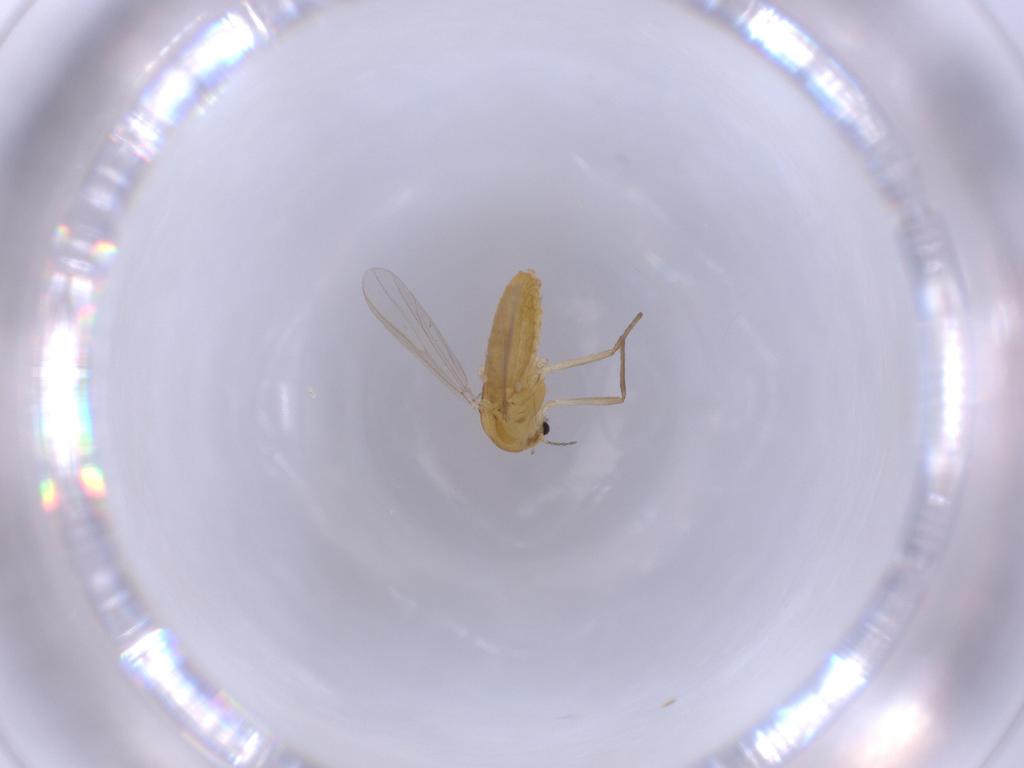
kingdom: Animalia
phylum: Arthropoda
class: Insecta
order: Diptera
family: Chironomidae
